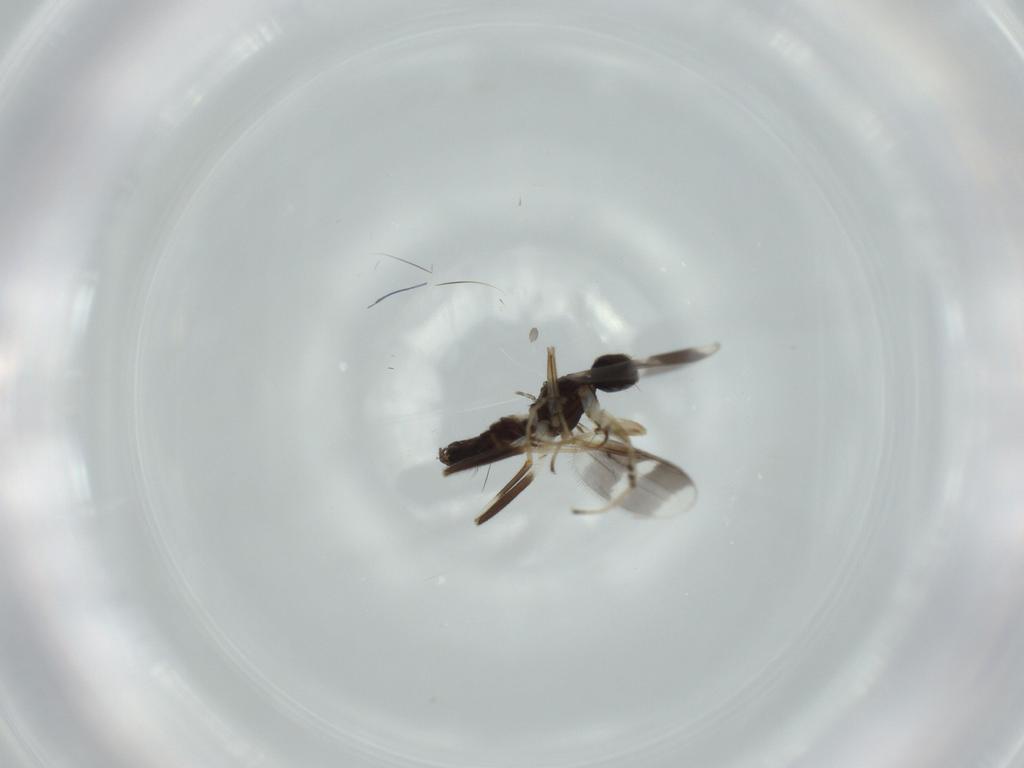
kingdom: Animalia
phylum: Arthropoda
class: Insecta
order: Diptera
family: Hybotidae
